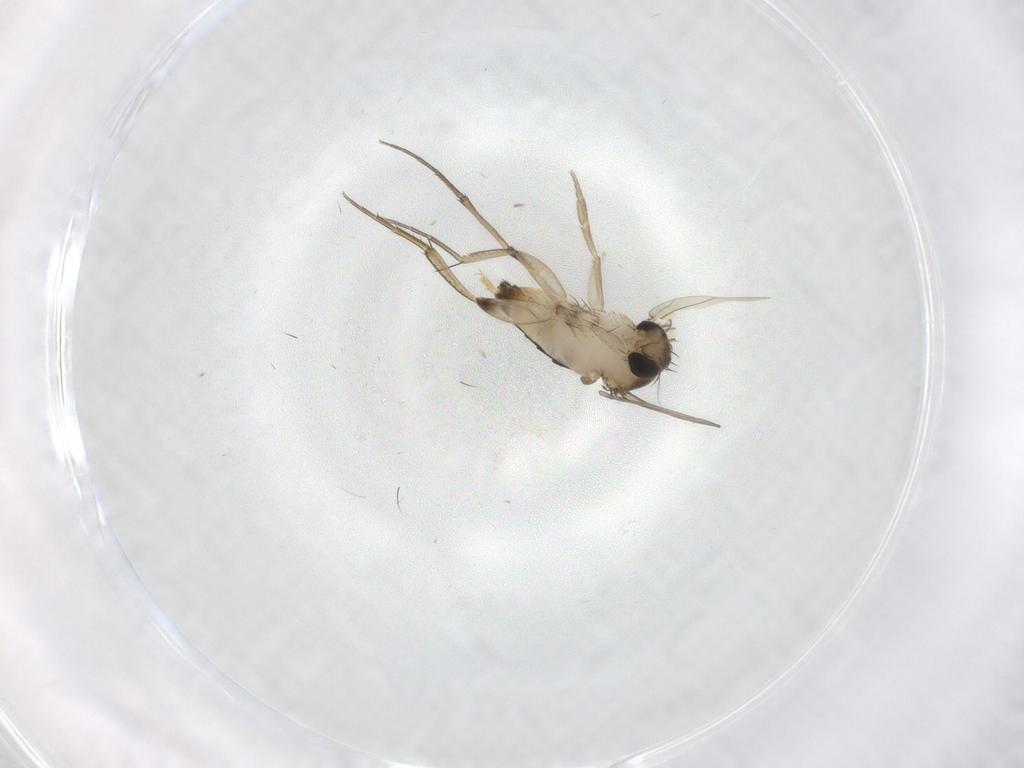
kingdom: Animalia
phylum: Arthropoda
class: Insecta
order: Diptera
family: Phoridae
